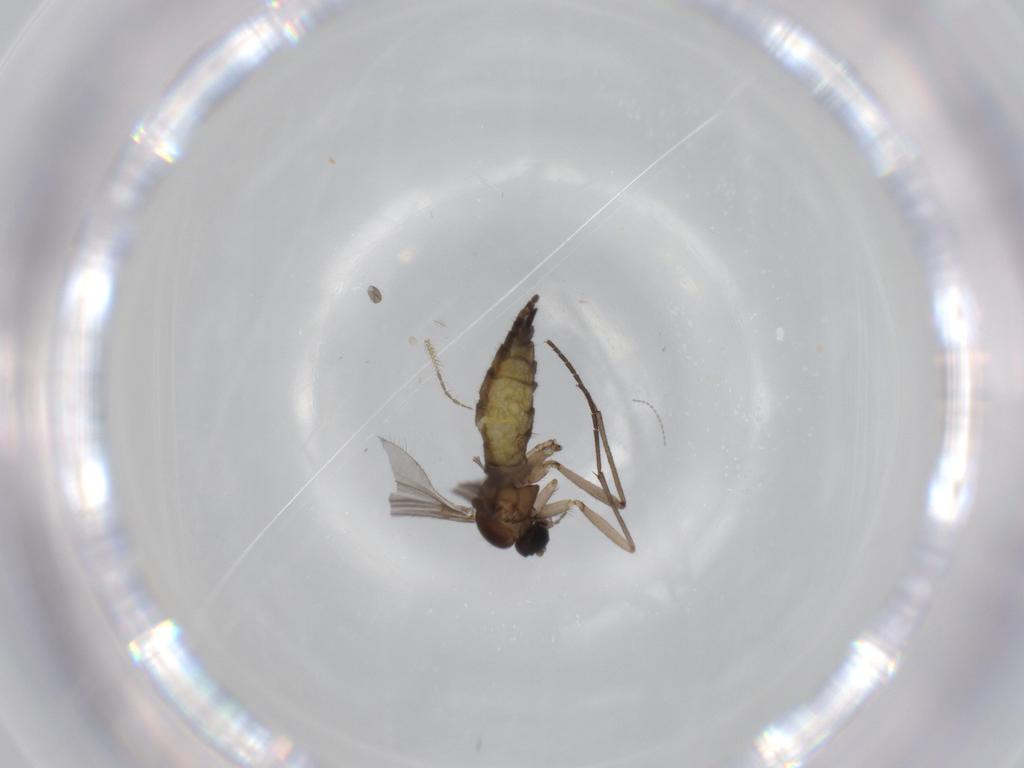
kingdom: Animalia
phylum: Arthropoda
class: Insecta
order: Diptera
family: Sciaridae
